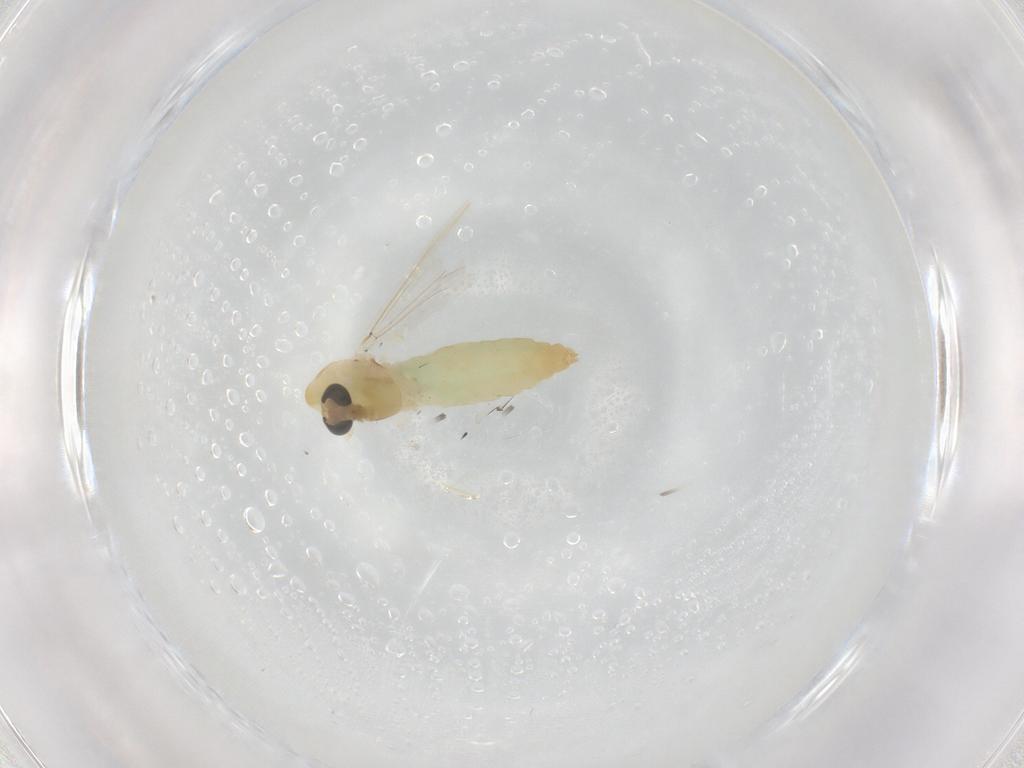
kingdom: Animalia
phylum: Arthropoda
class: Insecta
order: Diptera
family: Chironomidae
